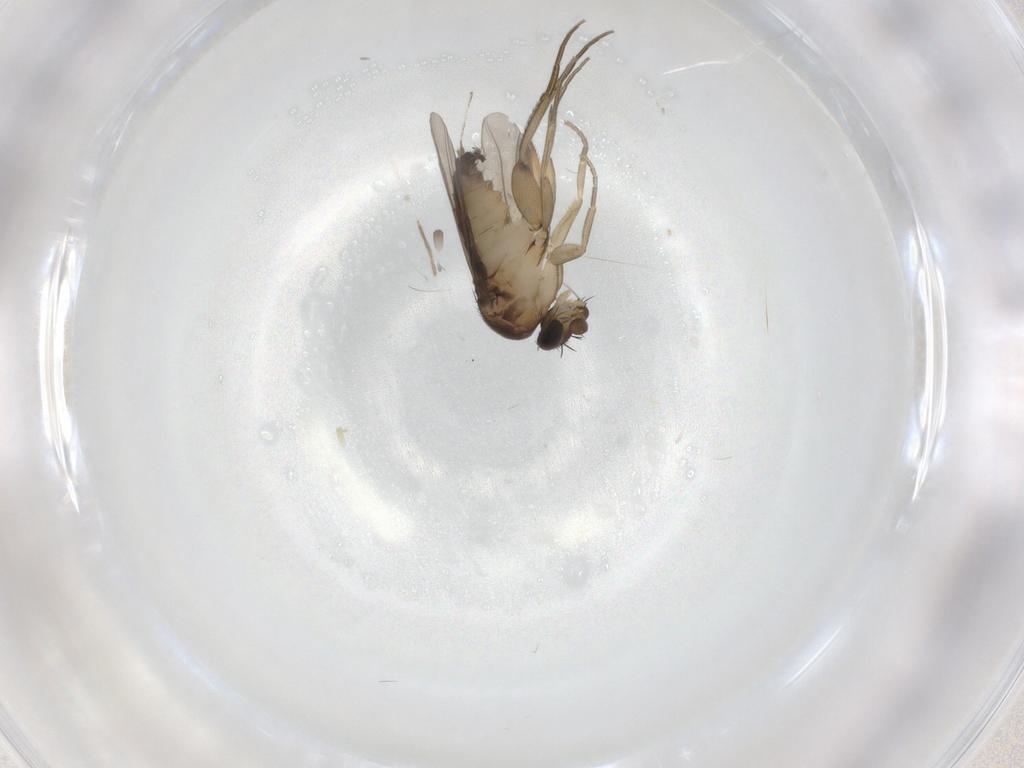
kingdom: Animalia
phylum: Arthropoda
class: Insecta
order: Diptera
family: Phoridae
